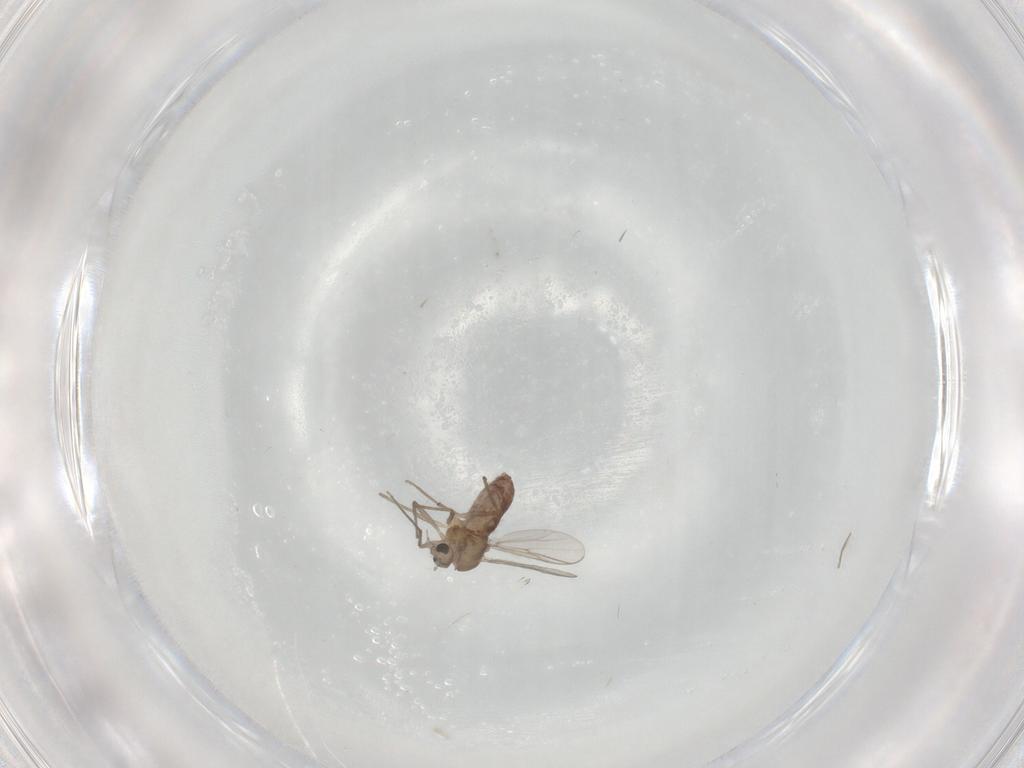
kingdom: Animalia
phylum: Arthropoda
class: Insecta
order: Diptera
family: Chironomidae
